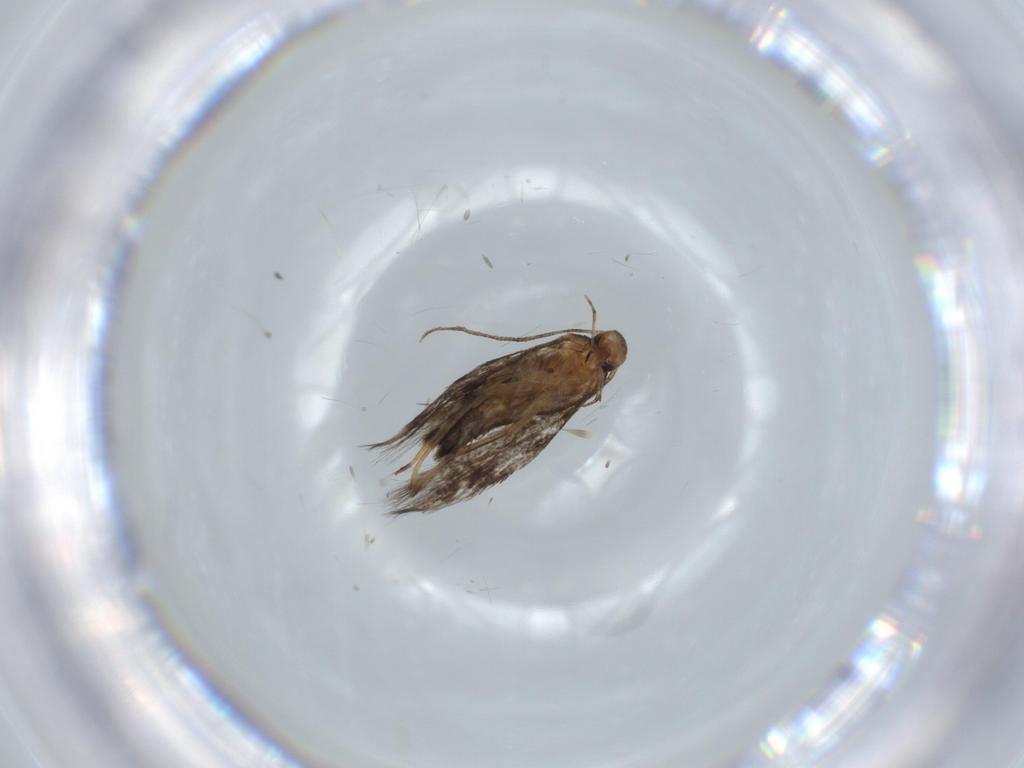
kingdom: Animalia
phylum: Arthropoda
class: Insecta
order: Lepidoptera
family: Cosmopterigidae
